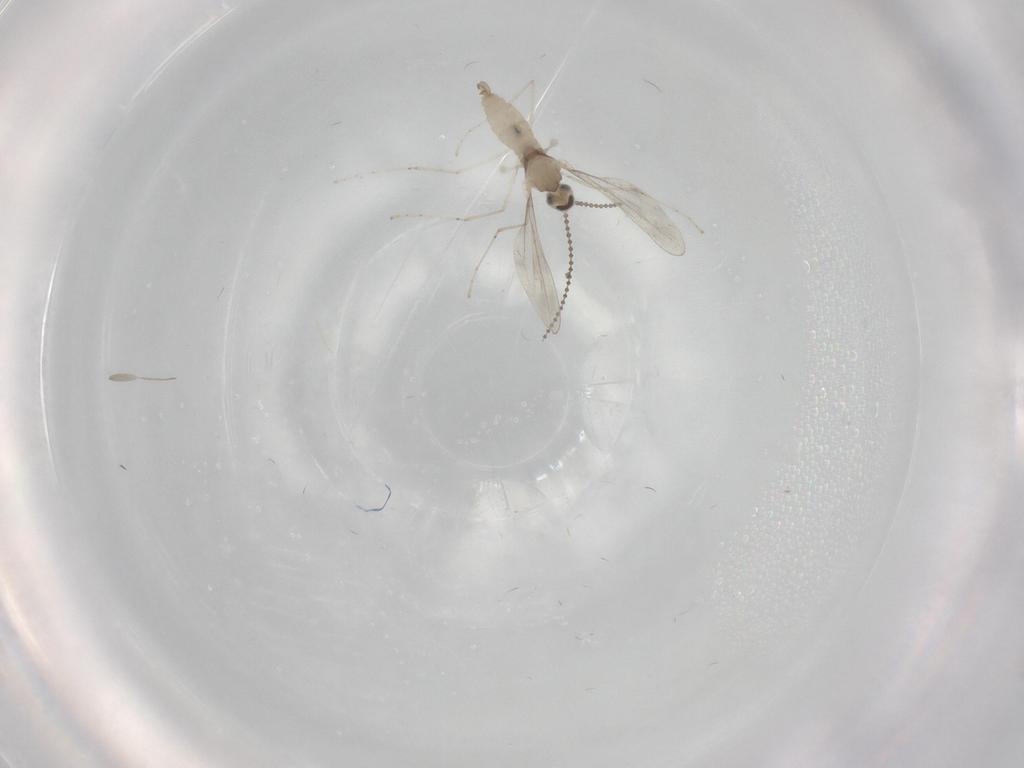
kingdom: Animalia
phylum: Arthropoda
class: Insecta
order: Diptera
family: Cecidomyiidae
